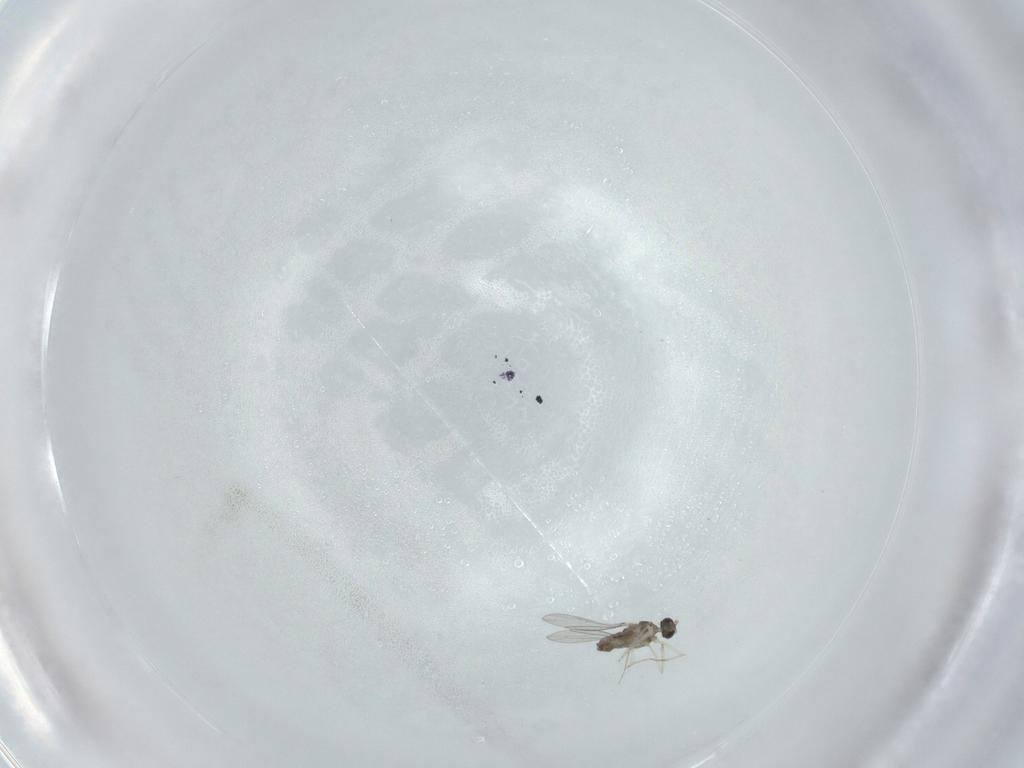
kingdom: Animalia
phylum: Arthropoda
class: Insecta
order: Diptera
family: Cecidomyiidae
